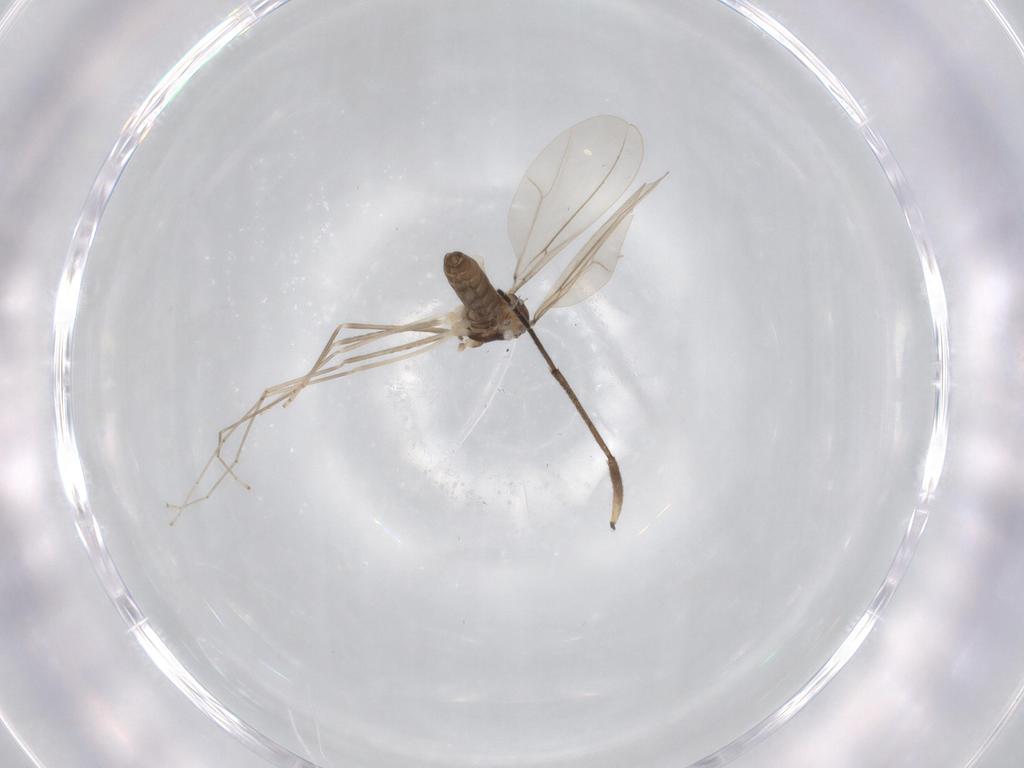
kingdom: Animalia
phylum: Arthropoda
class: Insecta
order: Diptera
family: Sciaridae
